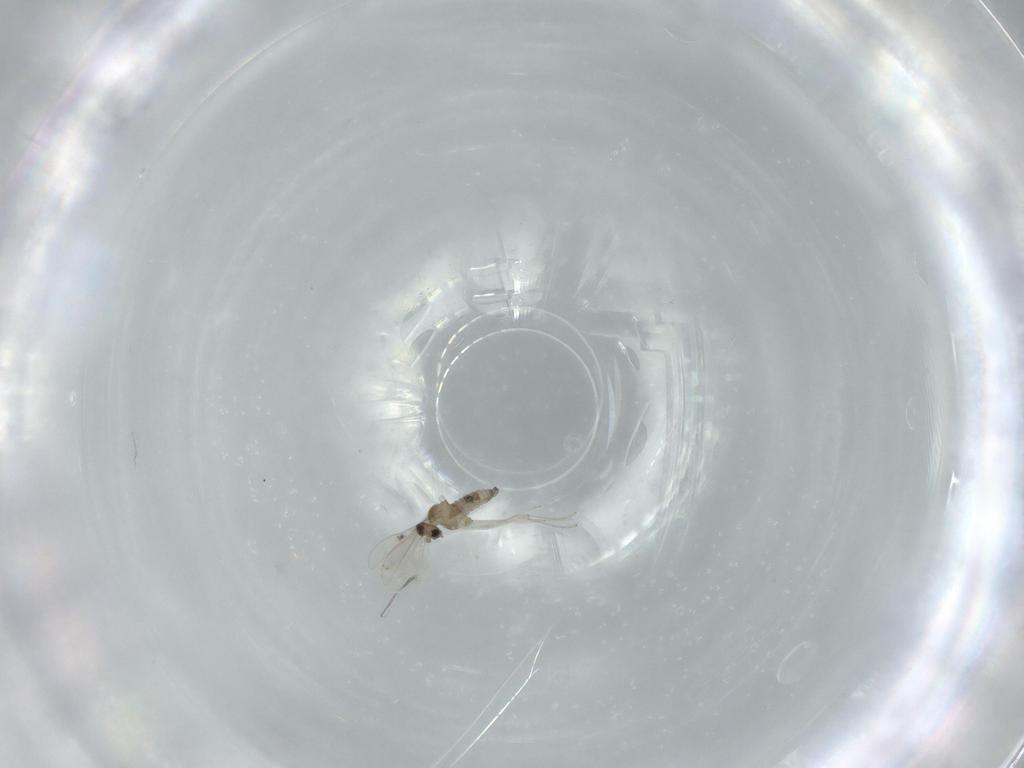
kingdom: Animalia
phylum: Arthropoda
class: Insecta
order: Diptera
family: Cecidomyiidae
